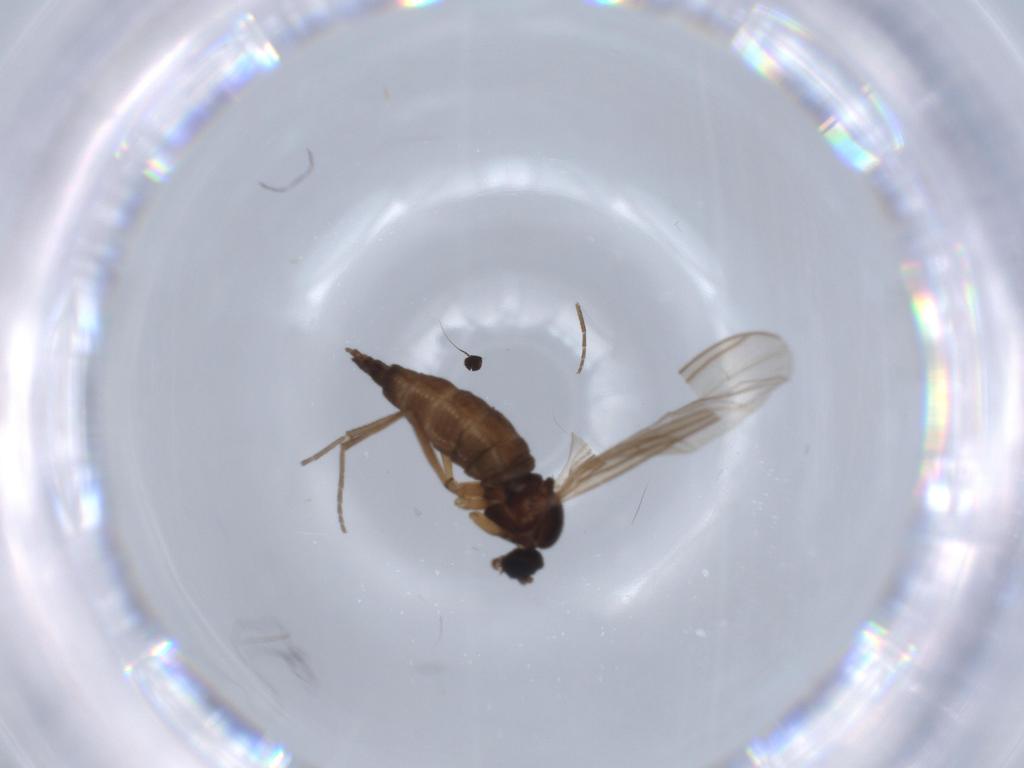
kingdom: Animalia
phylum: Arthropoda
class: Insecta
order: Diptera
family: Sciaridae
